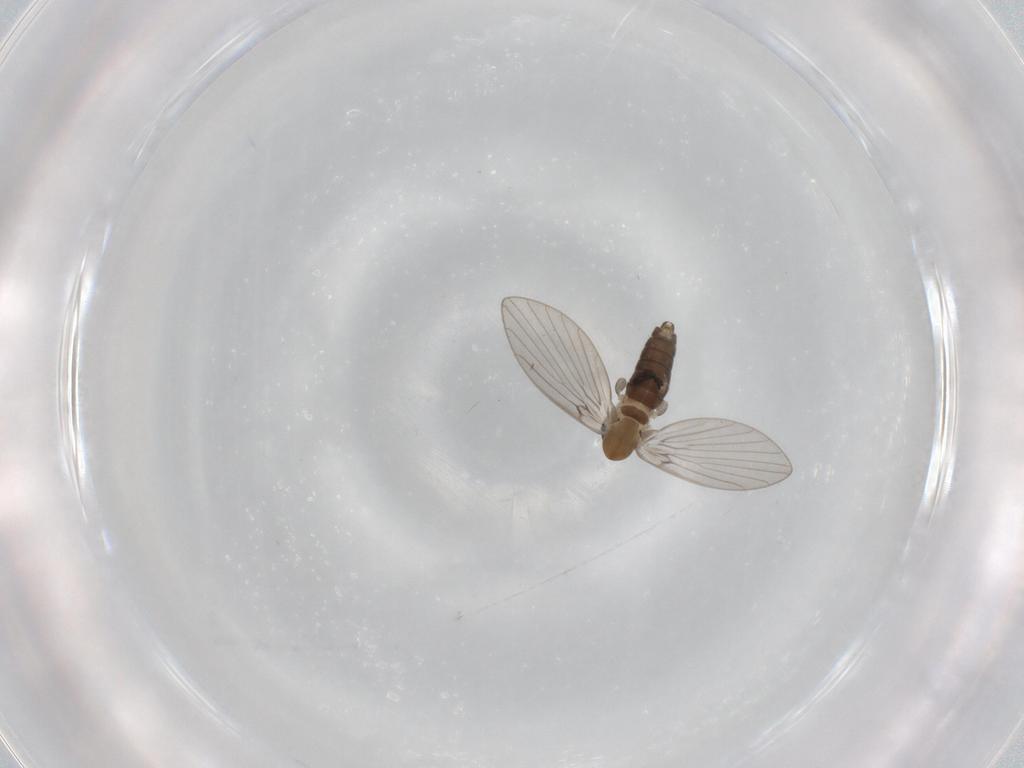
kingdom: Animalia
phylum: Arthropoda
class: Insecta
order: Diptera
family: Psychodidae
